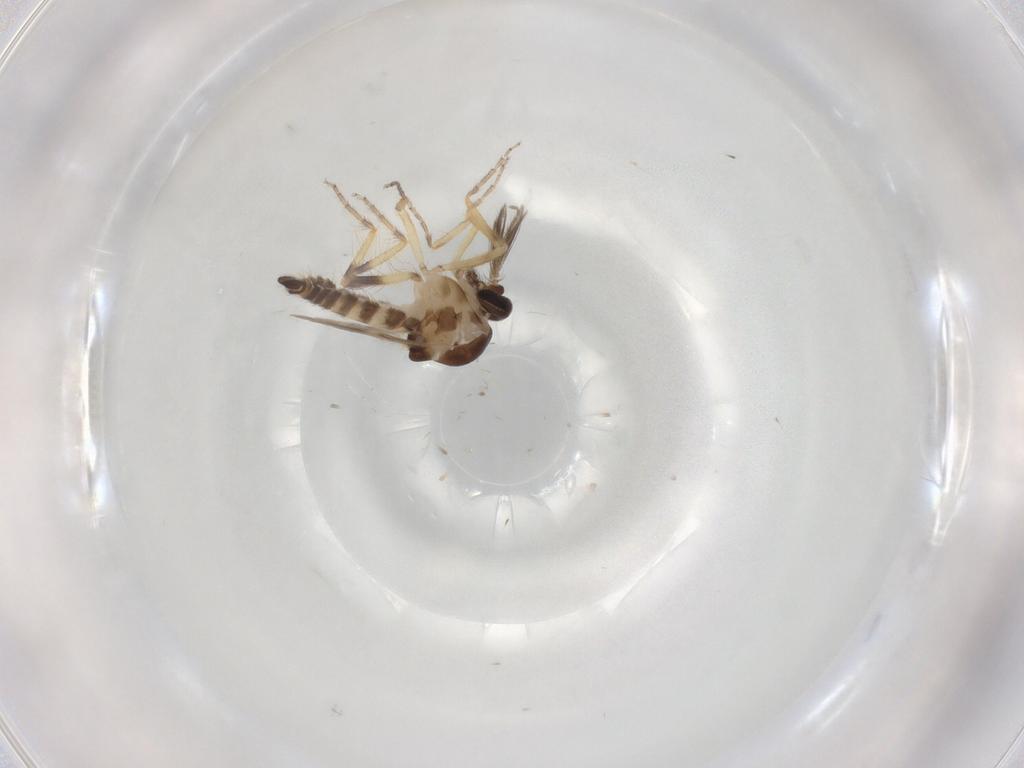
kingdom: Animalia
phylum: Arthropoda
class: Insecta
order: Diptera
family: Ceratopogonidae
